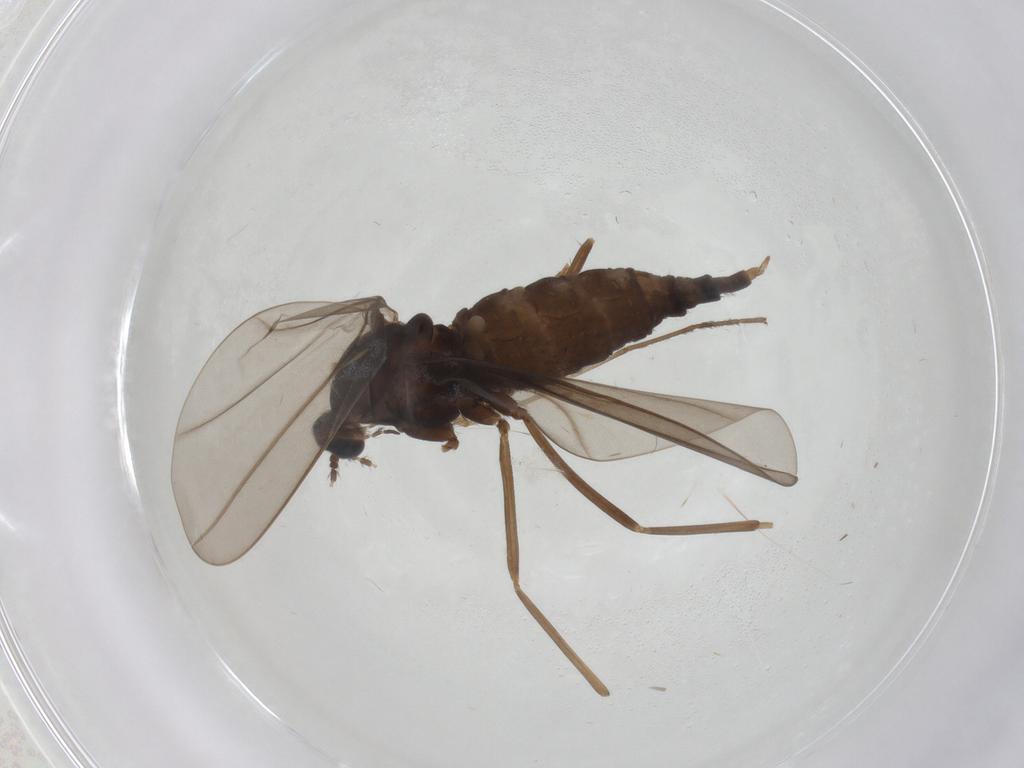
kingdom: Animalia
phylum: Arthropoda
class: Insecta
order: Diptera
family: Cecidomyiidae
